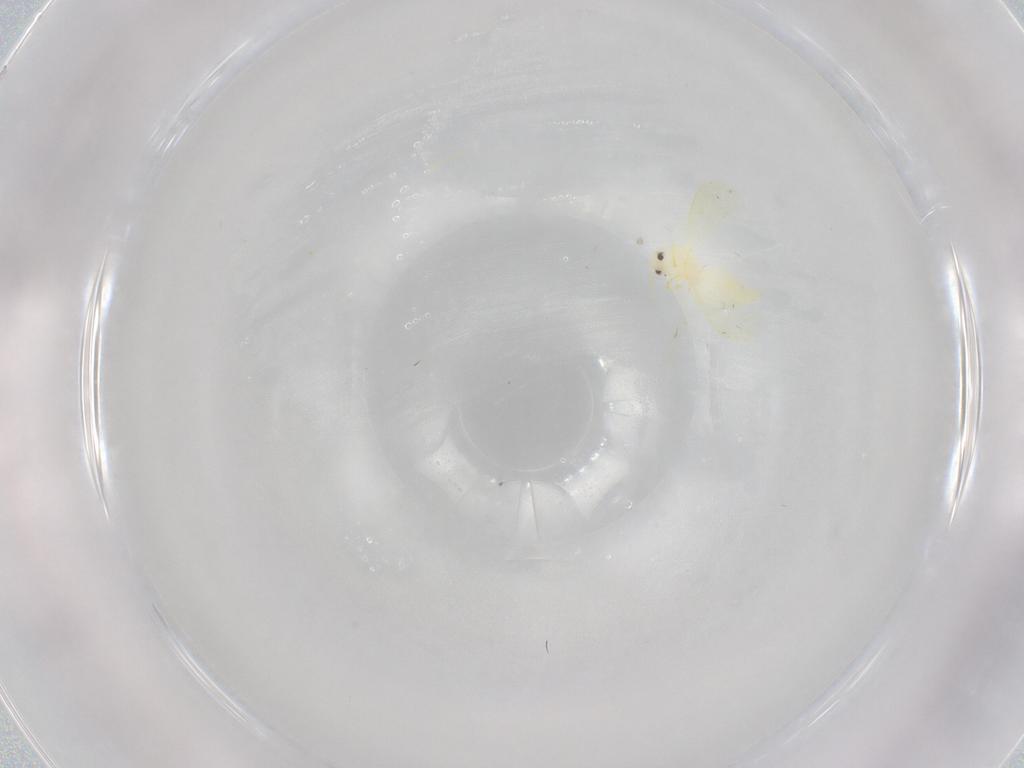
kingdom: Animalia
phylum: Arthropoda
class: Insecta
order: Hemiptera
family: Aleyrodidae
